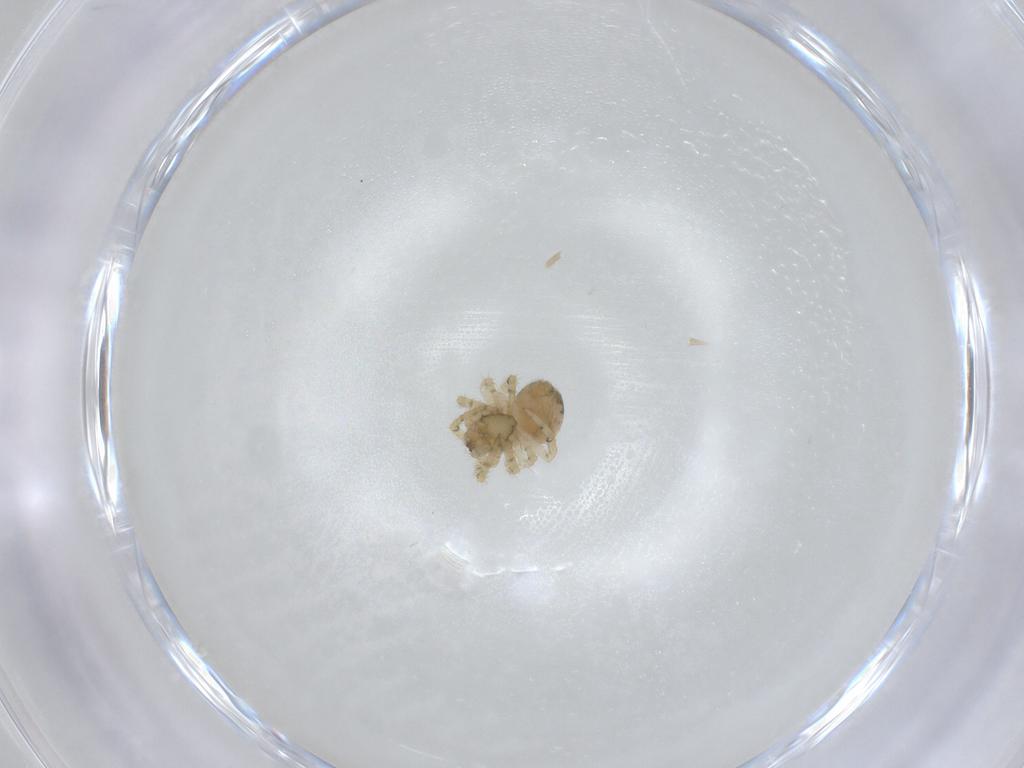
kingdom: Animalia
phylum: Arthropoda
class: Arachnida
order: Araneae
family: Theridiidae
